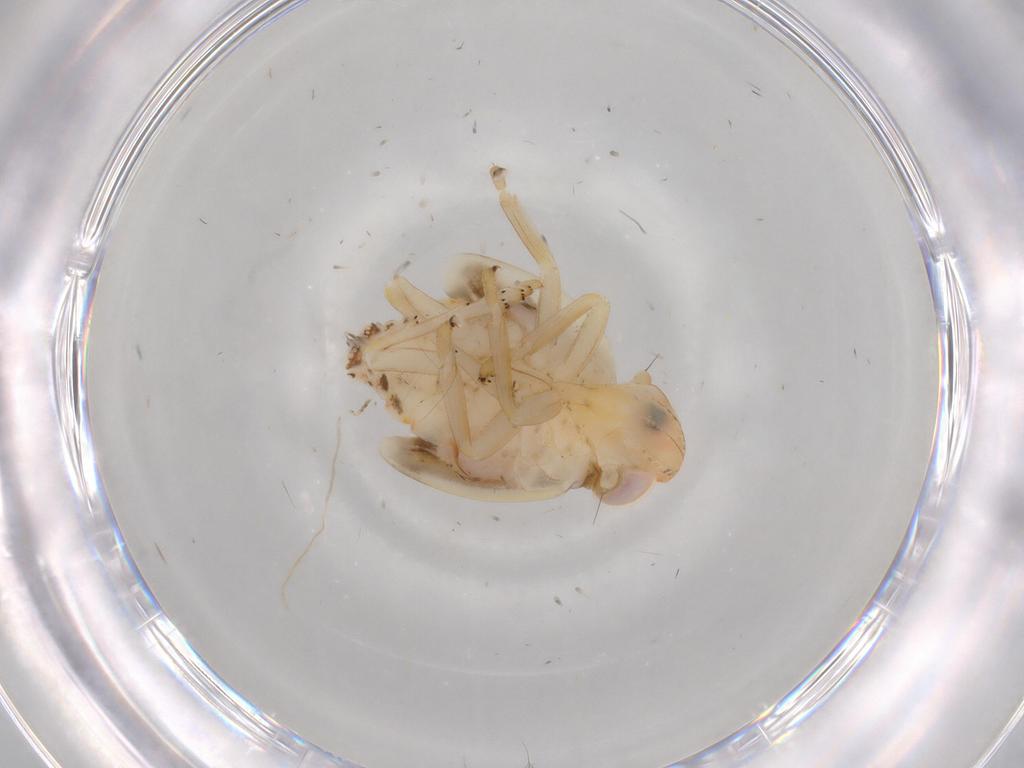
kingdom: Animalia
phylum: Arthropoda
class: Insecta
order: Hemiptera
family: Nogodinidae
